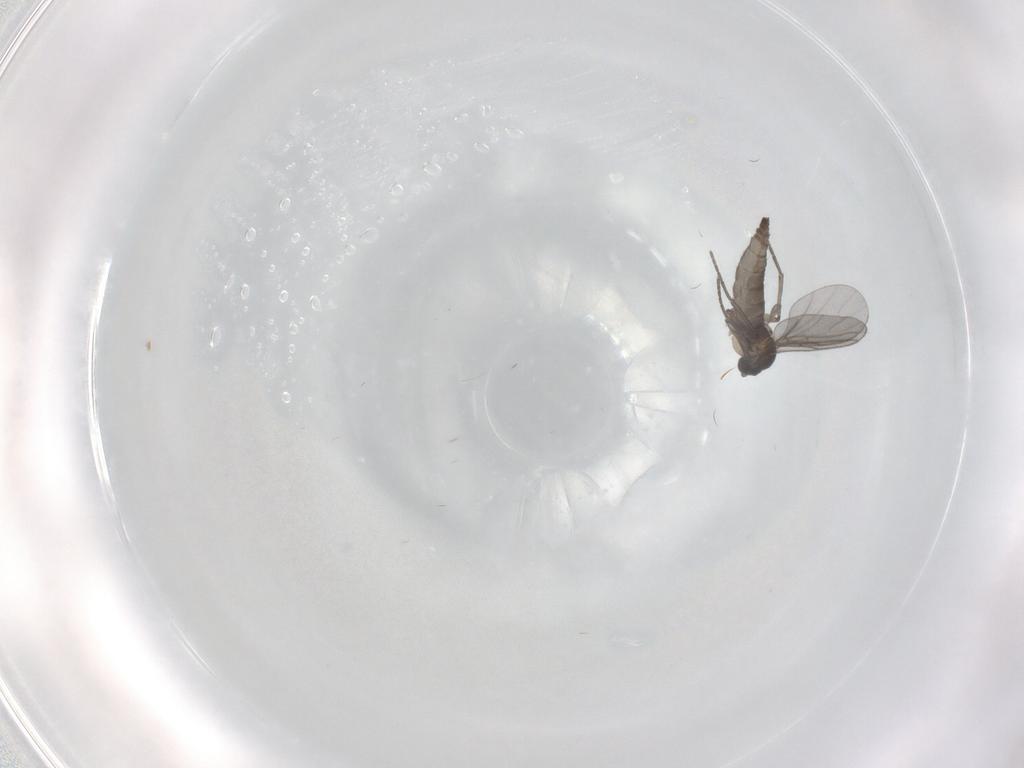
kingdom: Animalia
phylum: Arthropoda
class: Insecta
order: Diptera
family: Sciaridae
